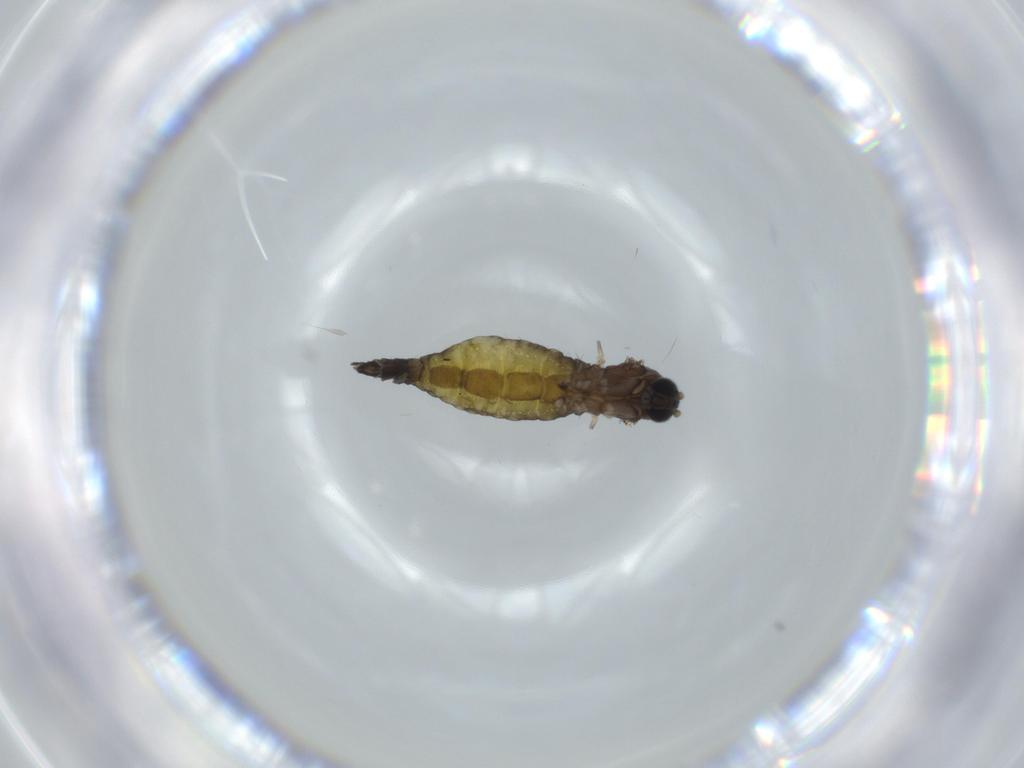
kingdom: Animalia
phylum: Arthropoda
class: Insecta
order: Diptera
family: Sciaridae
